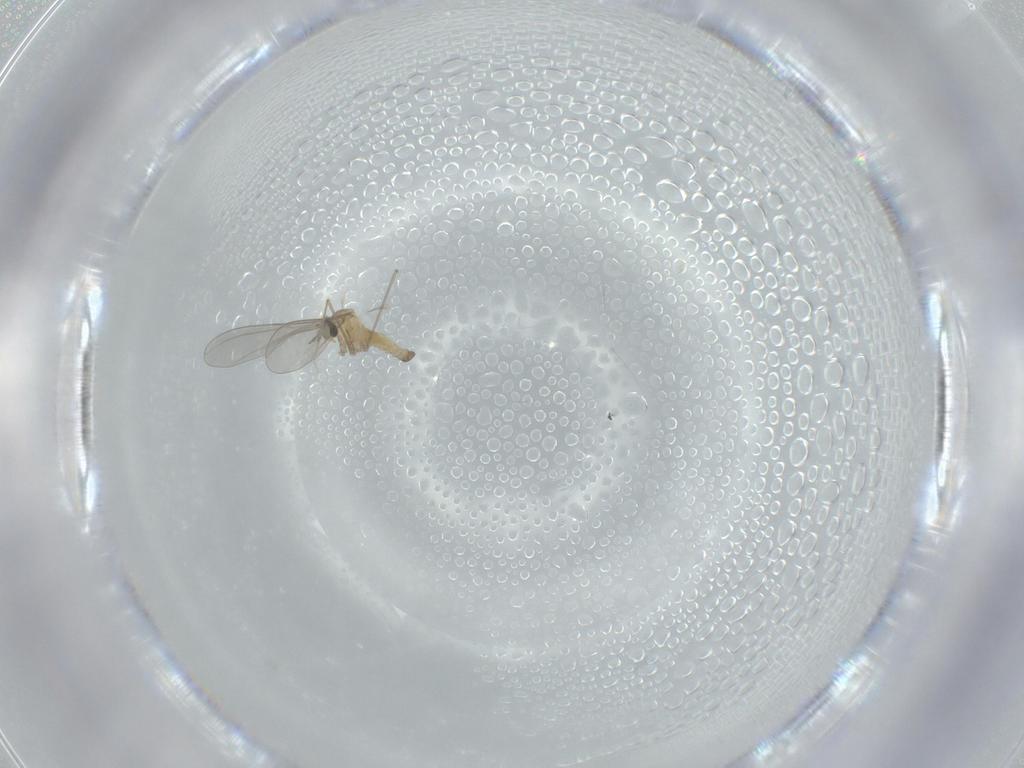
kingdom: Animalia
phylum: Arthropoda
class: Insecta
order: Diptera
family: Cecidomyiidae
